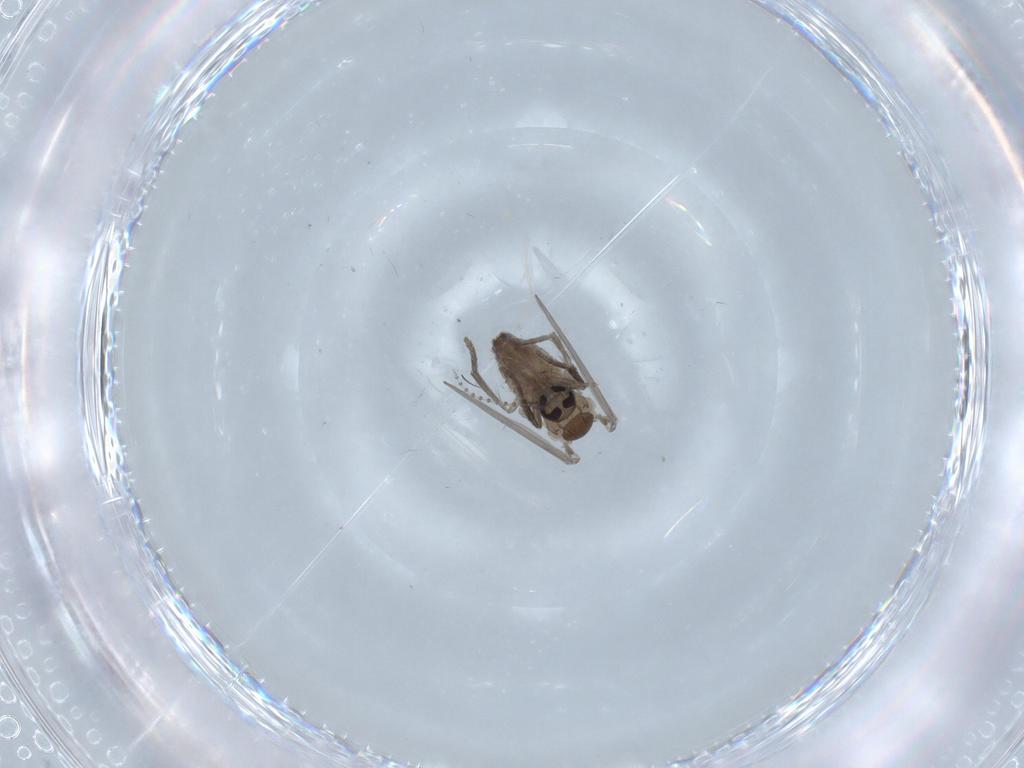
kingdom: Animalia
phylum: Arthropoda
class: Insecta
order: Diptera
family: Psychodidae
